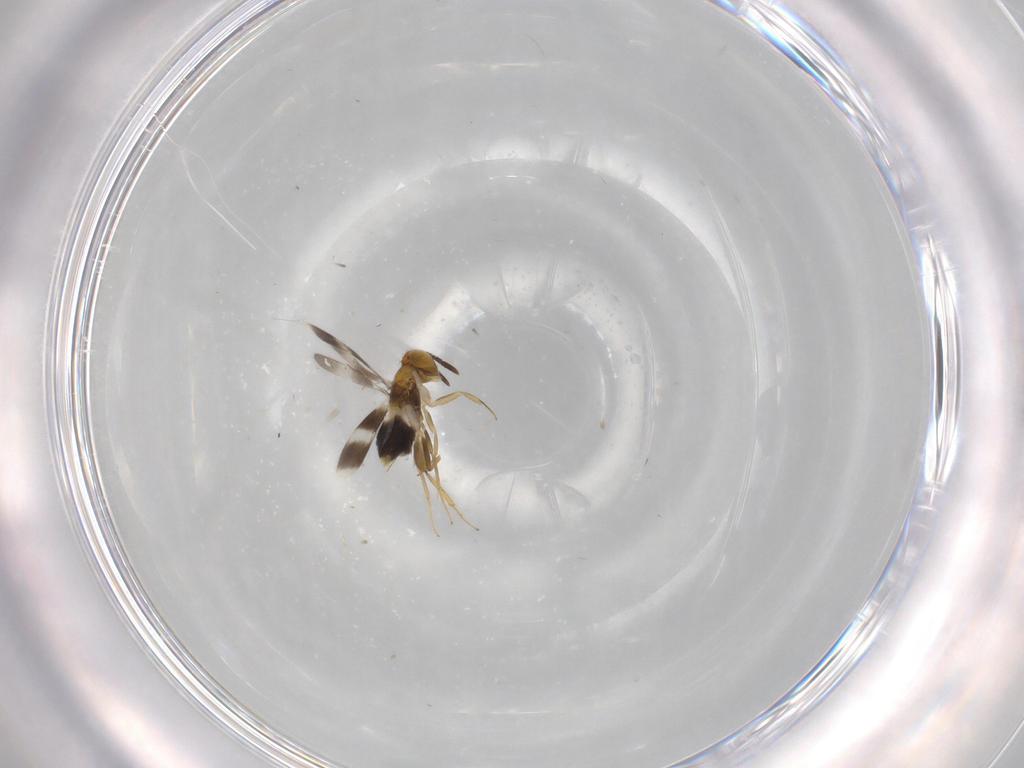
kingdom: Animalia
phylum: Arthropoda
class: Insecta
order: Hymenoptera
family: Aphelinidae
